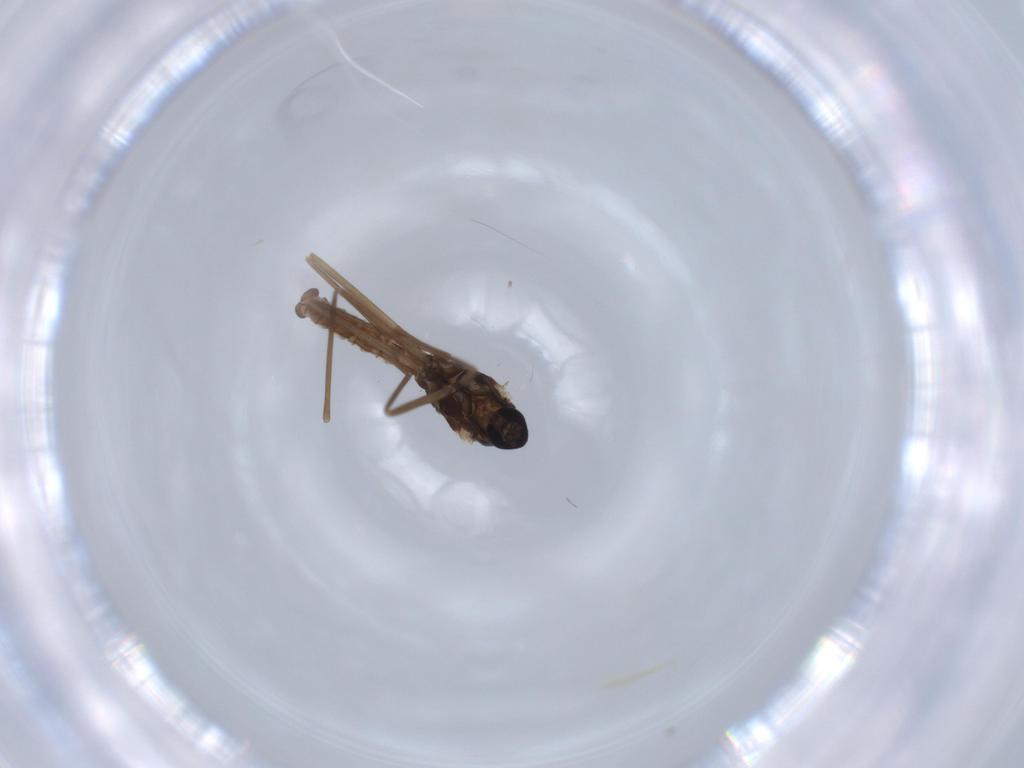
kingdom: Animalia
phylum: Arthropoda
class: Insecta
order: Diptera
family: Cecidomyiidae
